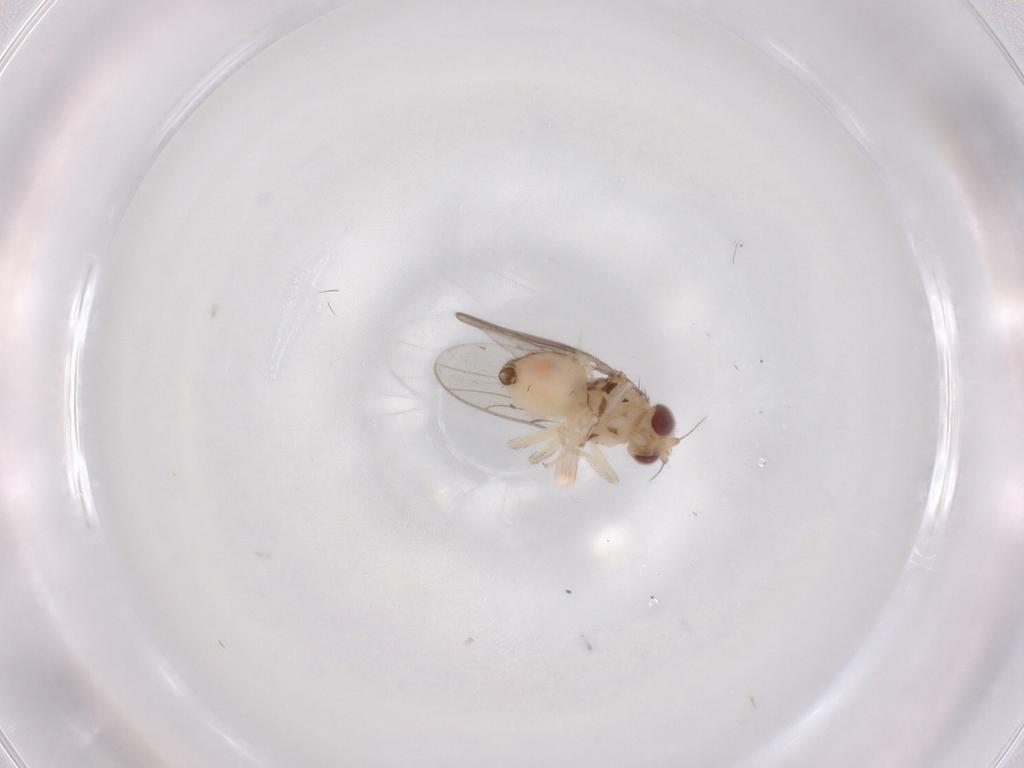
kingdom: Animalia
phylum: Arthropoda
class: Insecta
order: Diptera
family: Chloropidae
